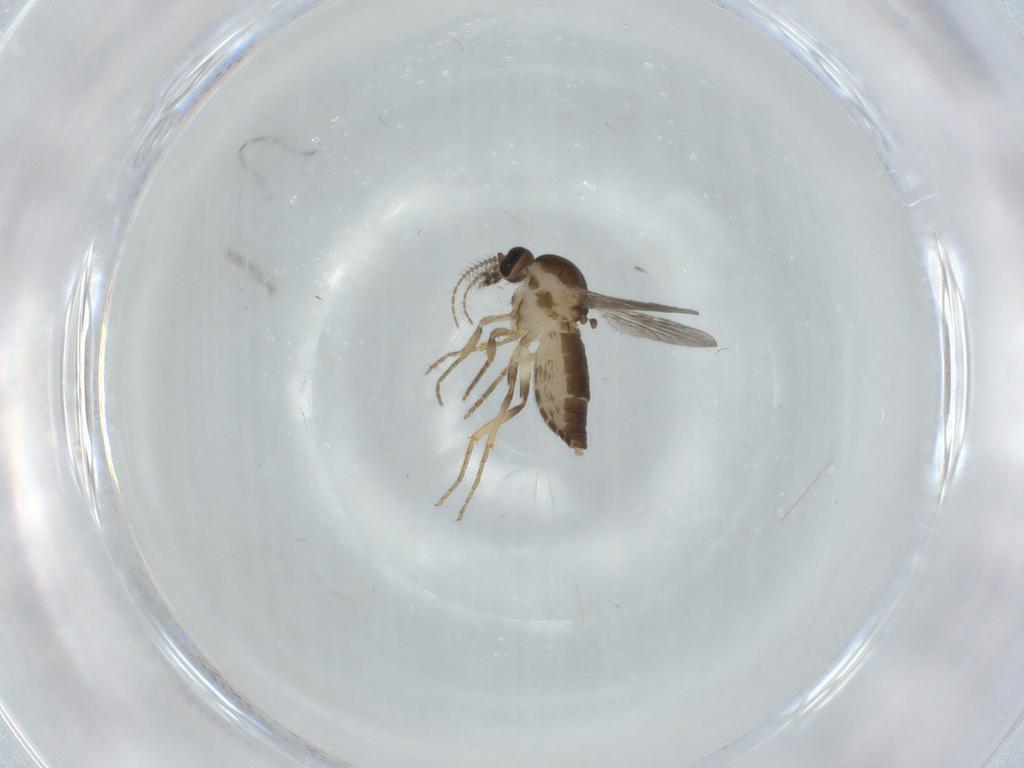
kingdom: Animalia
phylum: Arthropoda
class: Insecta
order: Diptera
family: Ceratopogonidae
